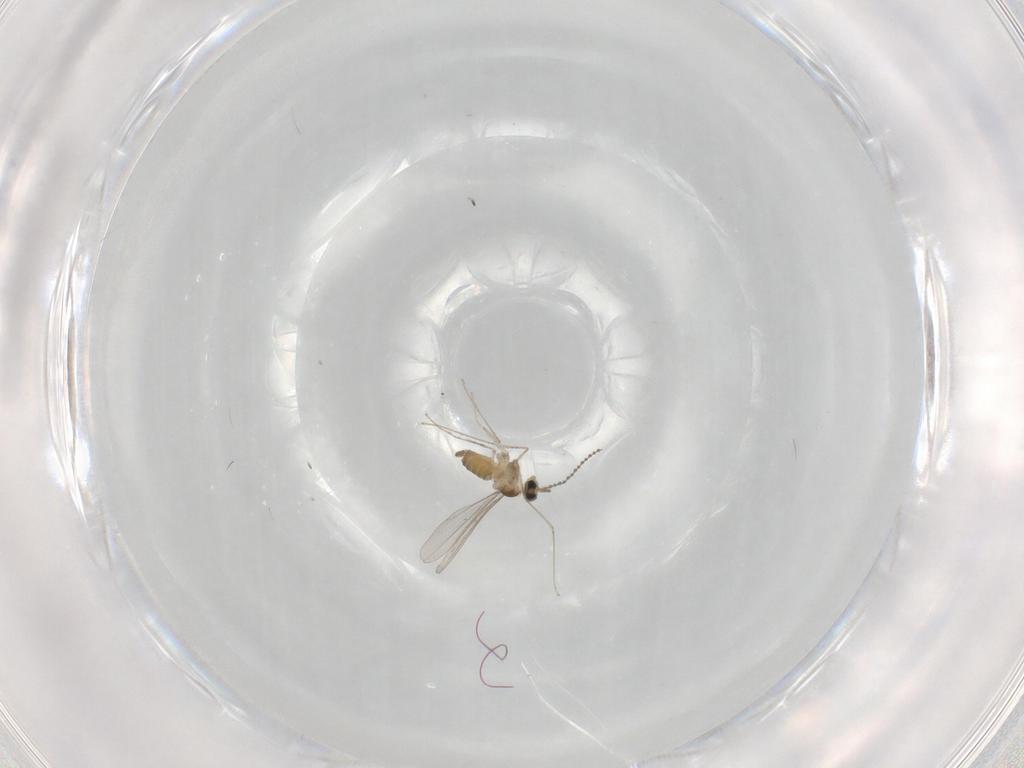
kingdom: Animalia
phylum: Arthropoda
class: Insecta
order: Diptera
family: Cecidomyiidae
